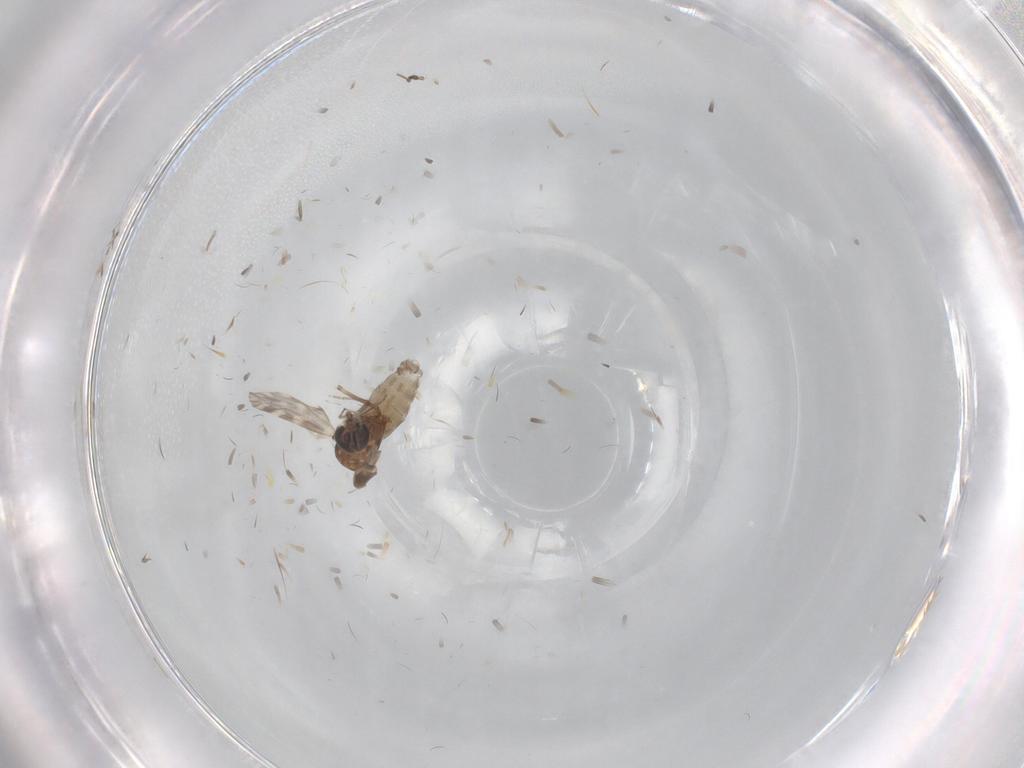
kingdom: Animalia
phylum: Arthropoda
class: Insecta
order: Diptera
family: Ceratopogonidae
